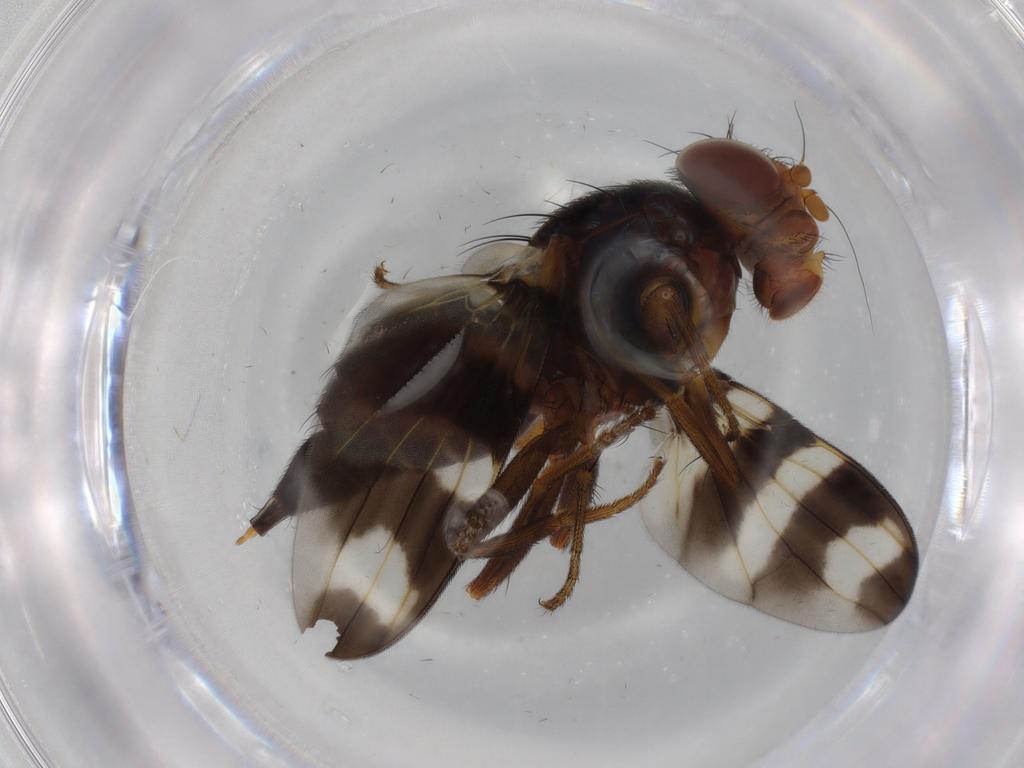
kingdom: Animalia
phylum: Arthropoda
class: Insecta
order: Diptera
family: Ulidiidae
